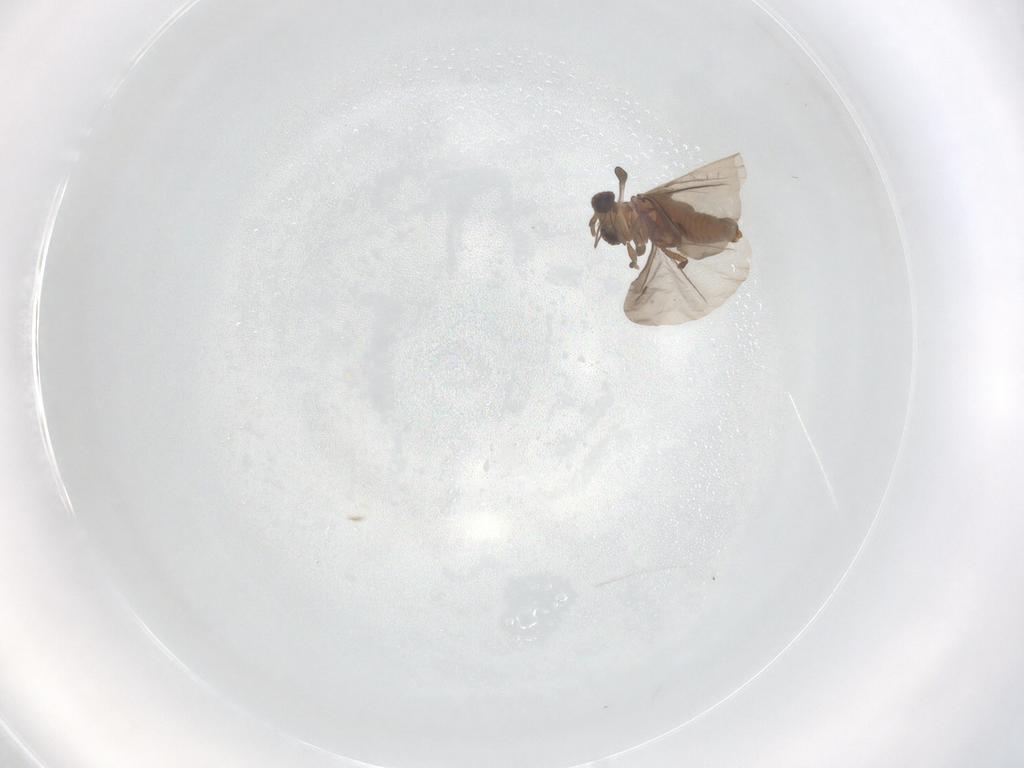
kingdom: Animalia
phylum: Arthropoda
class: Insecta
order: Strepsiptera
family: Myrmecolacidae
